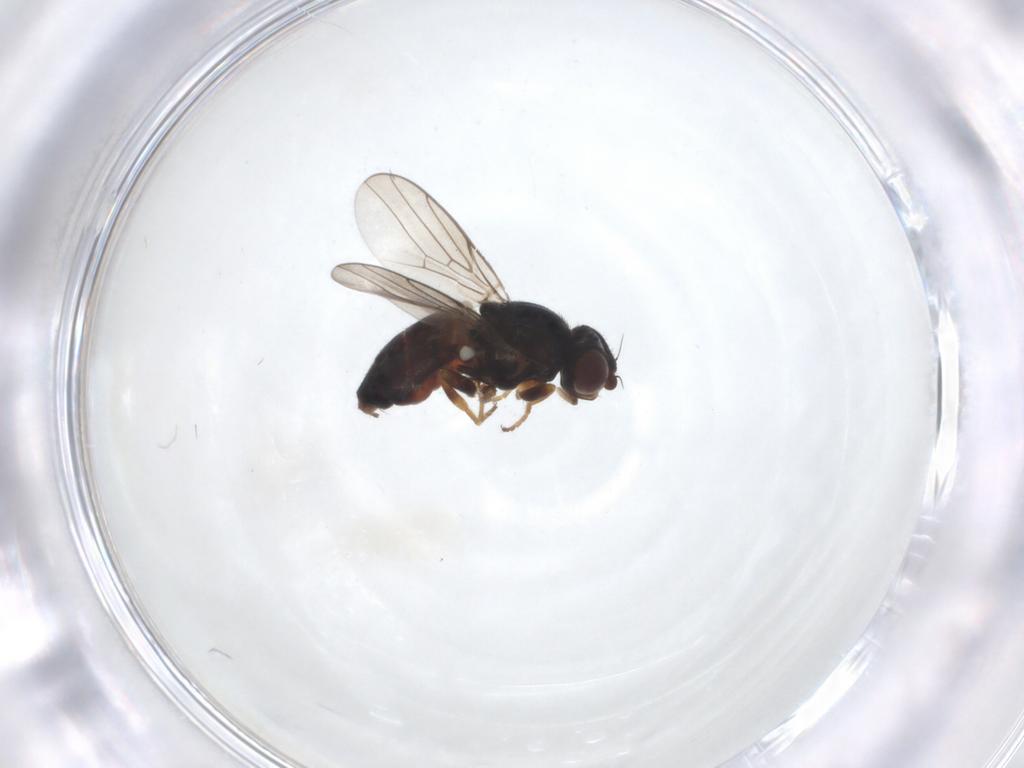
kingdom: Animalia
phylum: Arthropoda
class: Insecta
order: Diptera
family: Chloropidae
